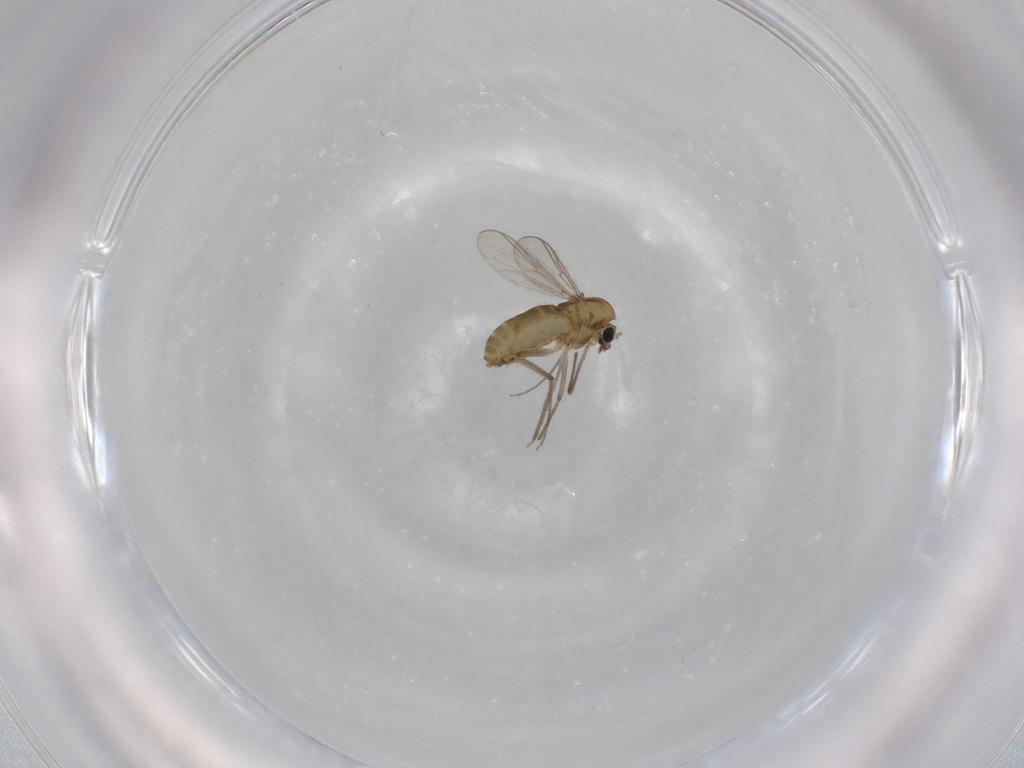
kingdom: Animalia
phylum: Arthropoda
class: Insecta
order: Diptera
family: Chironomidae
